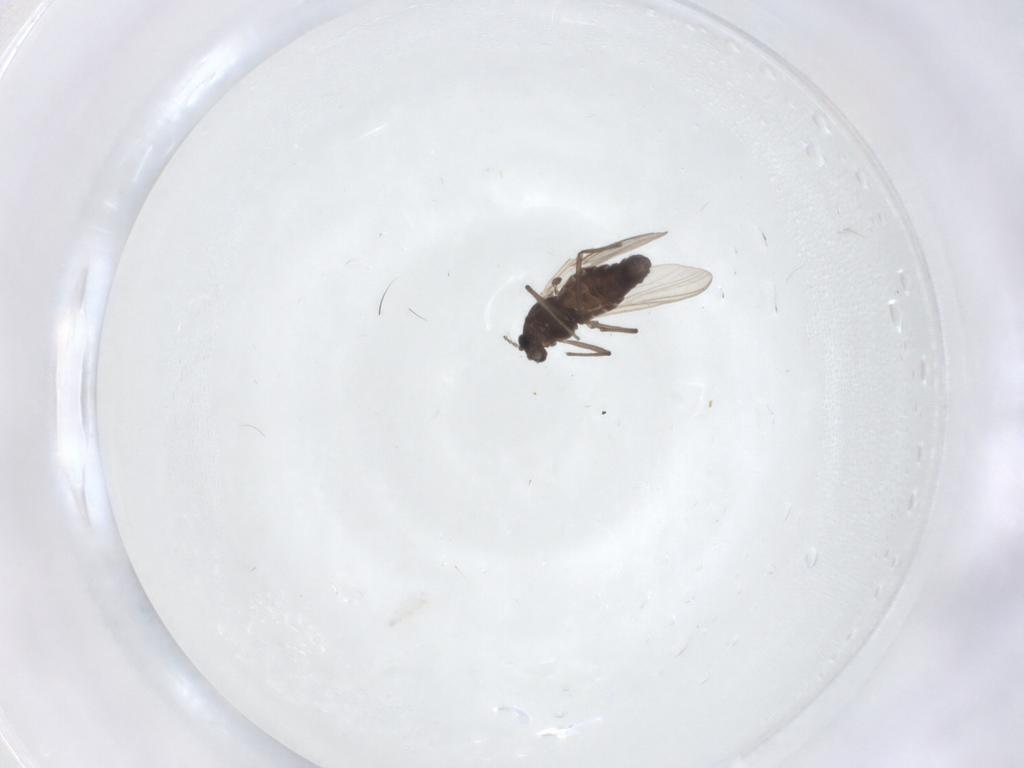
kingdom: Animalia
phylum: Arthropoda
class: Insecta
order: Diptera
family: Chironomidae
